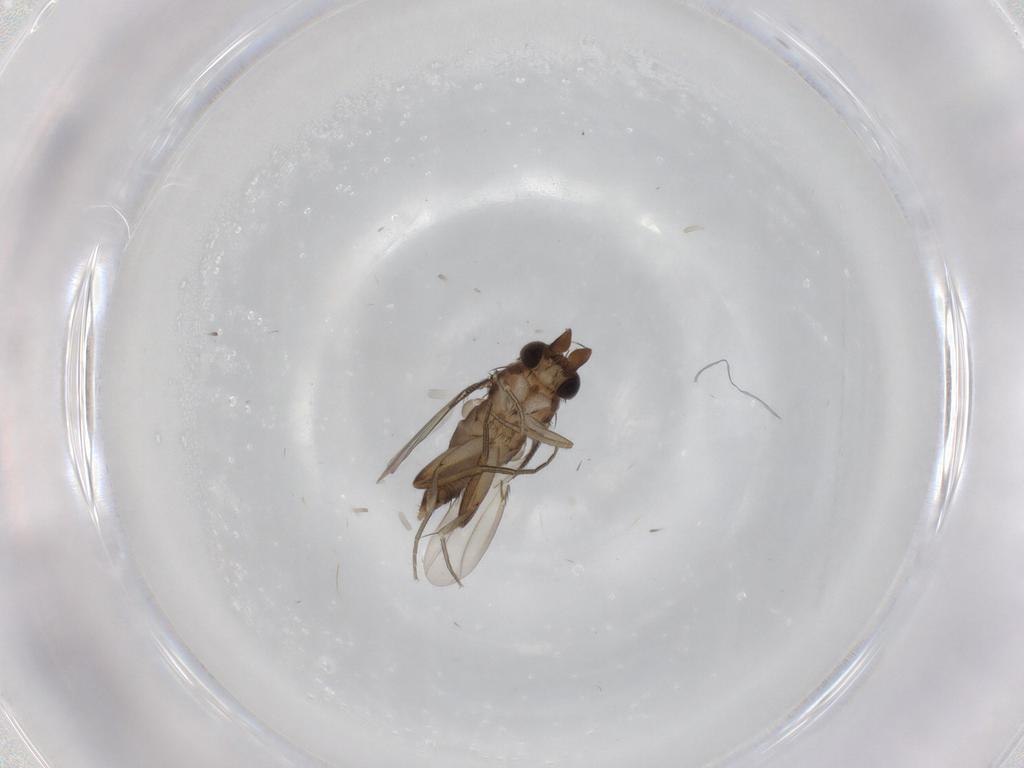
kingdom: Animalia
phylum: Arthropoda
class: Insecta
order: Diptera
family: Phoridae
